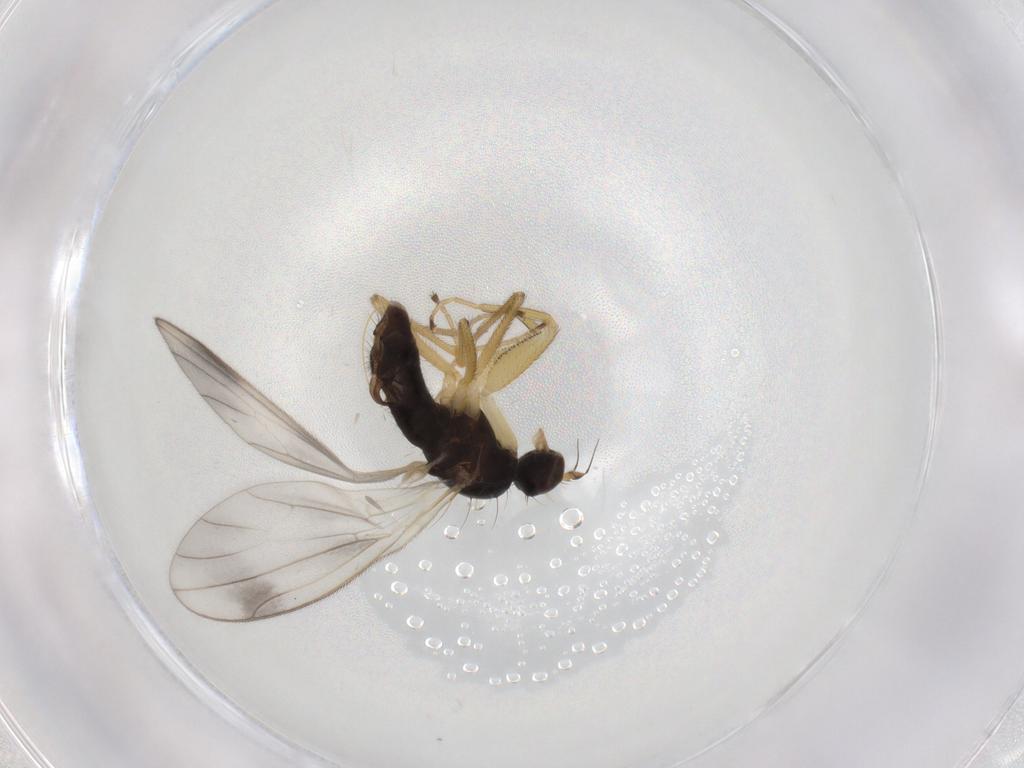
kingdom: Animalia
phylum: Arthropoda
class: Insecta
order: Diptera
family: Empididae
